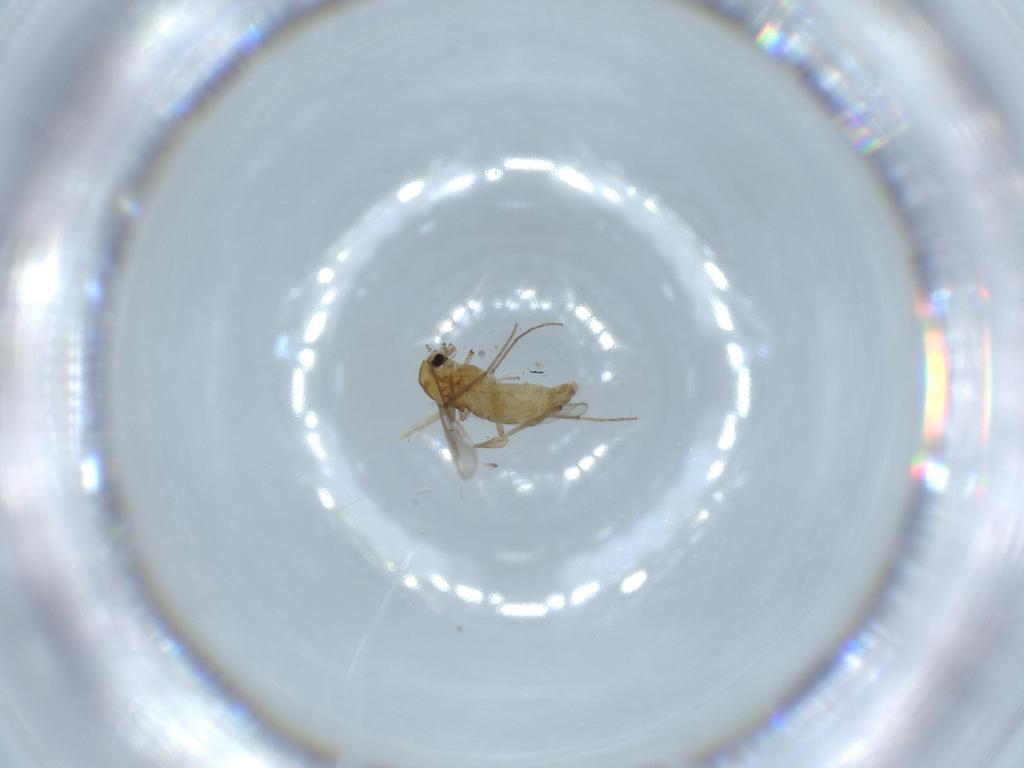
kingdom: Animalia
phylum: Arthropoda
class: Insecta
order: Diptera
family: Chironomidae
